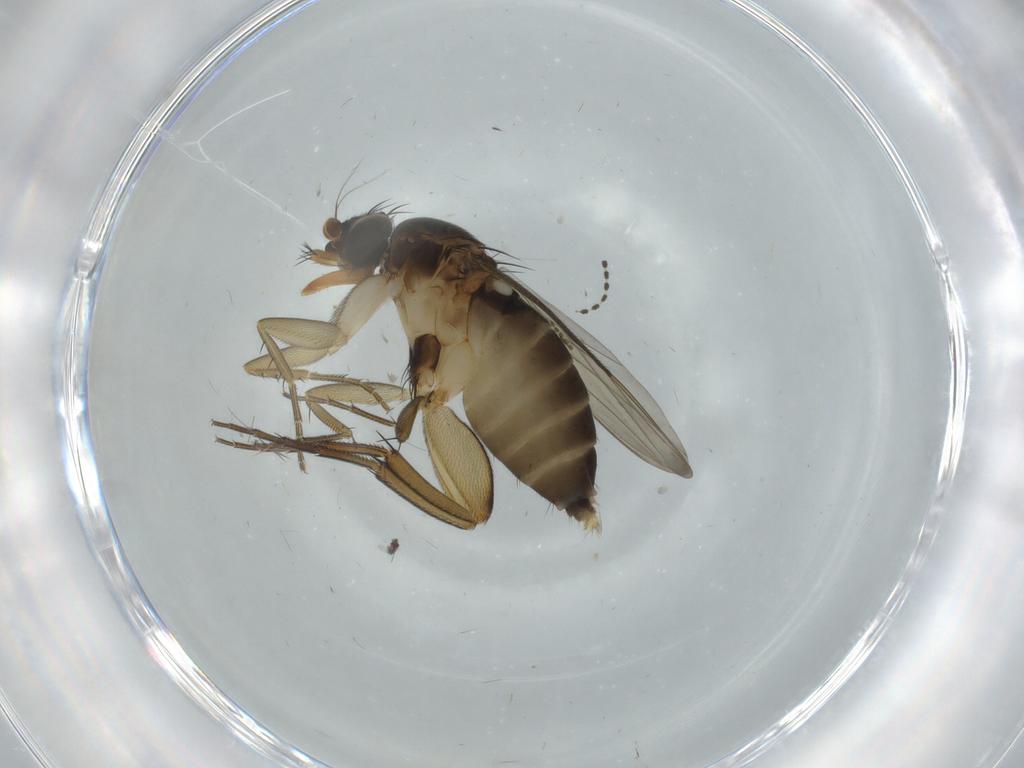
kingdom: Animalia
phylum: Arthropoda
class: Insecta
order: Diptera
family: Phoridae
